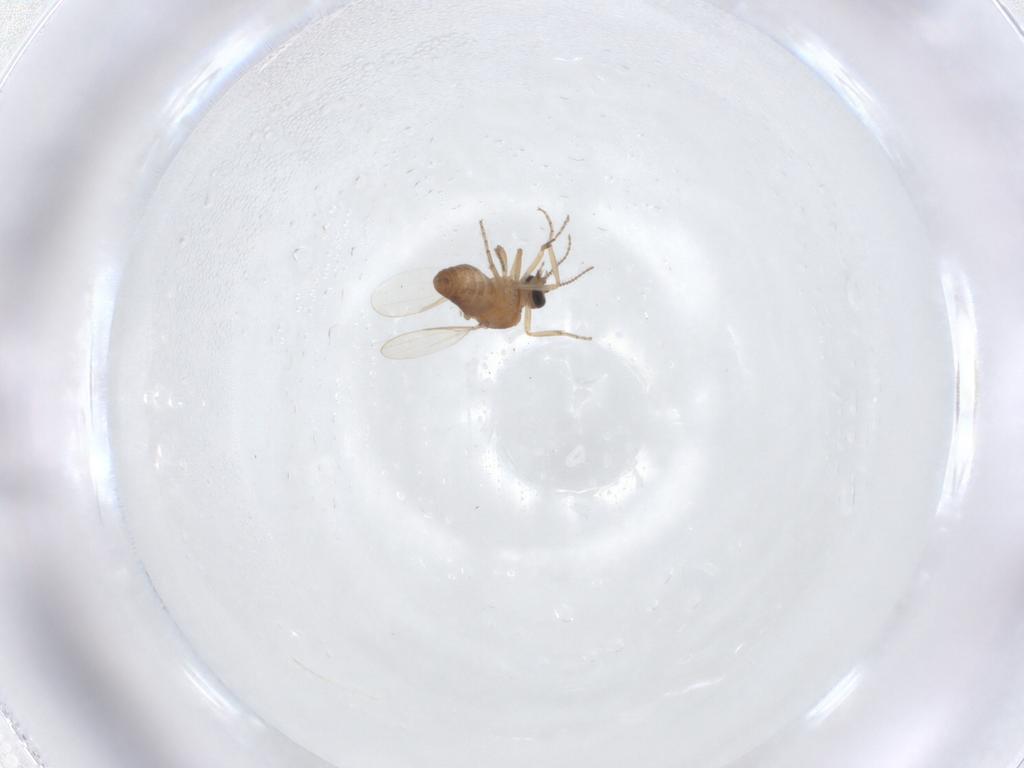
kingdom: Animalia
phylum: Arthropoda
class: Insecta
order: Diptera
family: Ceratopogonidae
